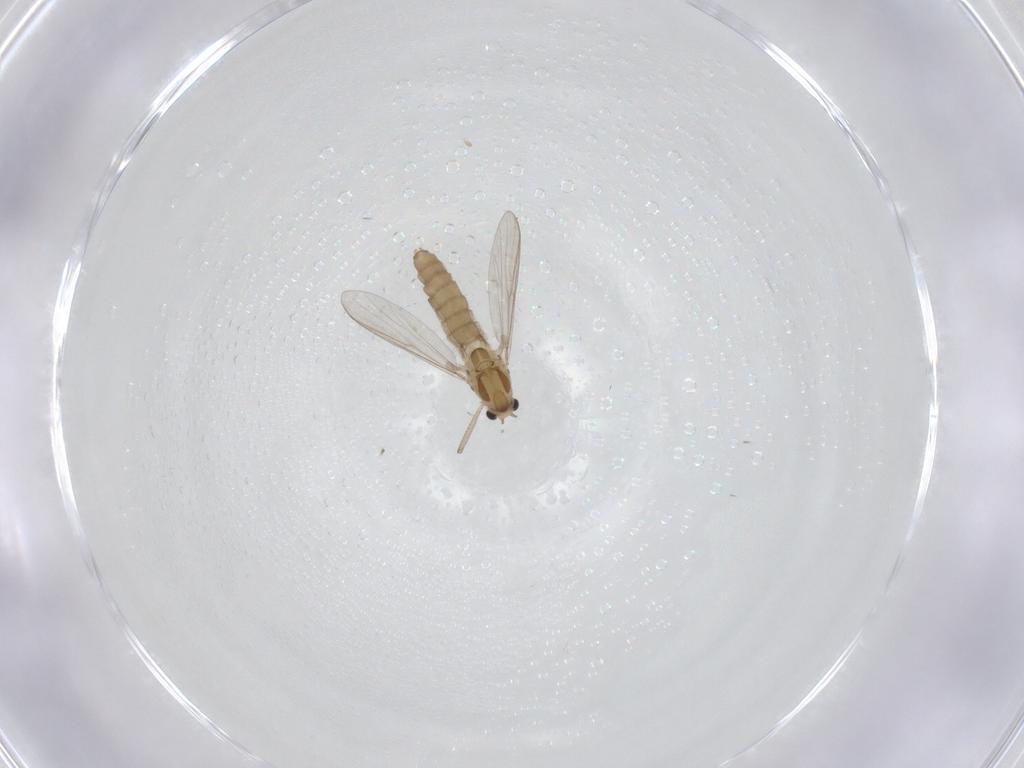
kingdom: Animalia
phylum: Arthropoda
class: Insecta
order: Diptera
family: Chironomidae
